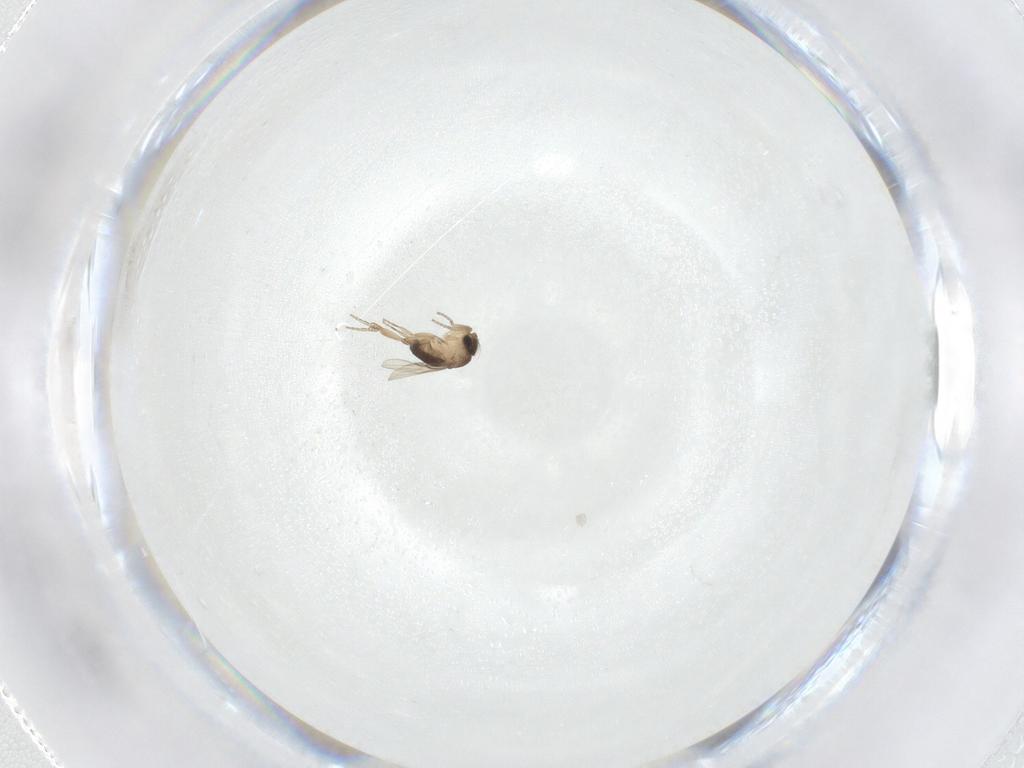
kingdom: Animalia
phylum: Arthropoda
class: Insecta
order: Diptera
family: Phoridae
